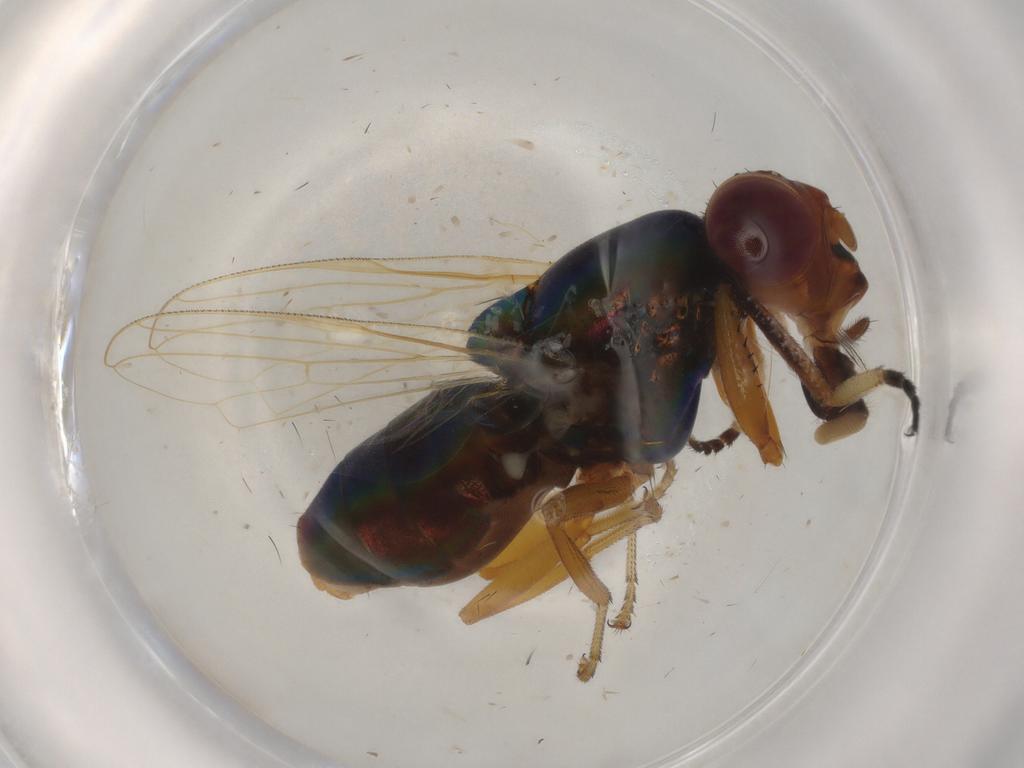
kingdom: Animalia
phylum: Arthropoda
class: Insecta
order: Diptera
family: Ulidiidae
